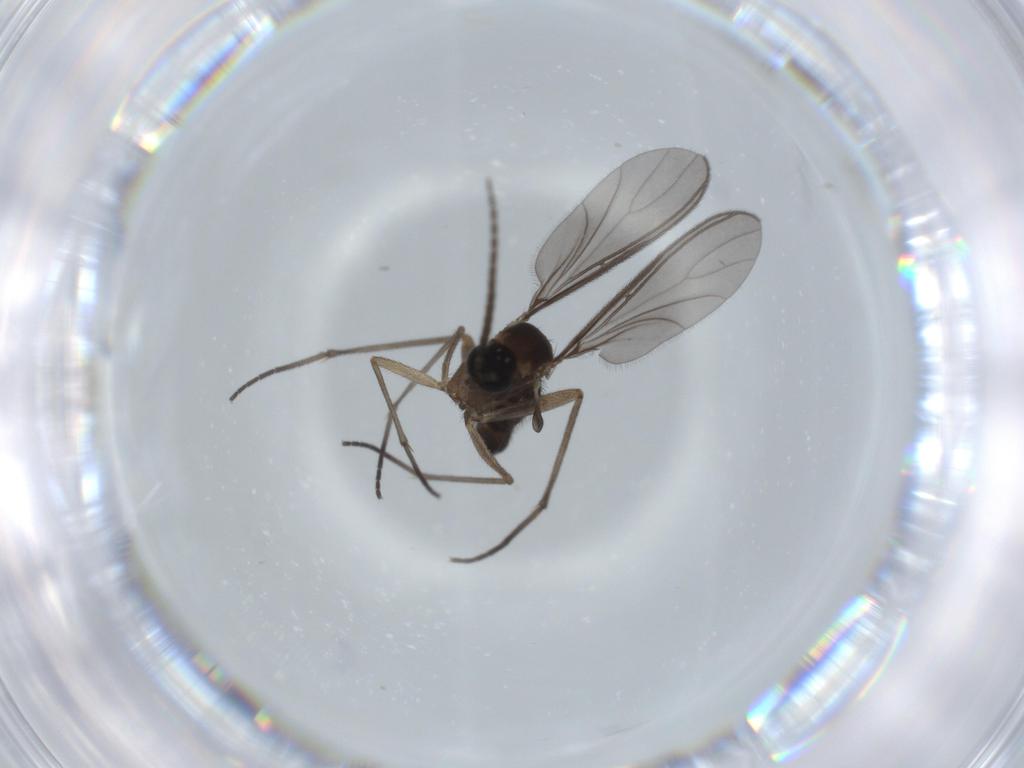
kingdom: Animalia
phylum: Arthropoda
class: Insecta
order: Diptera
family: Sciaridae
